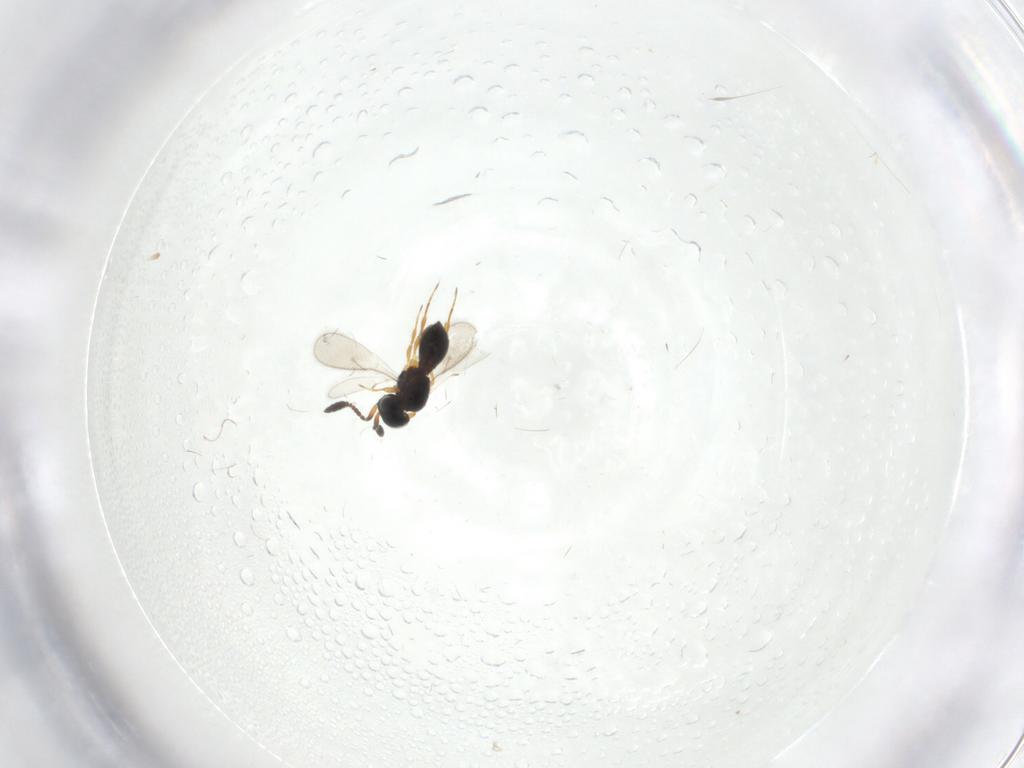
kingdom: Animalia
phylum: Arthropoda
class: Insecta
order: Hymenoptera
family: Scelionidae
